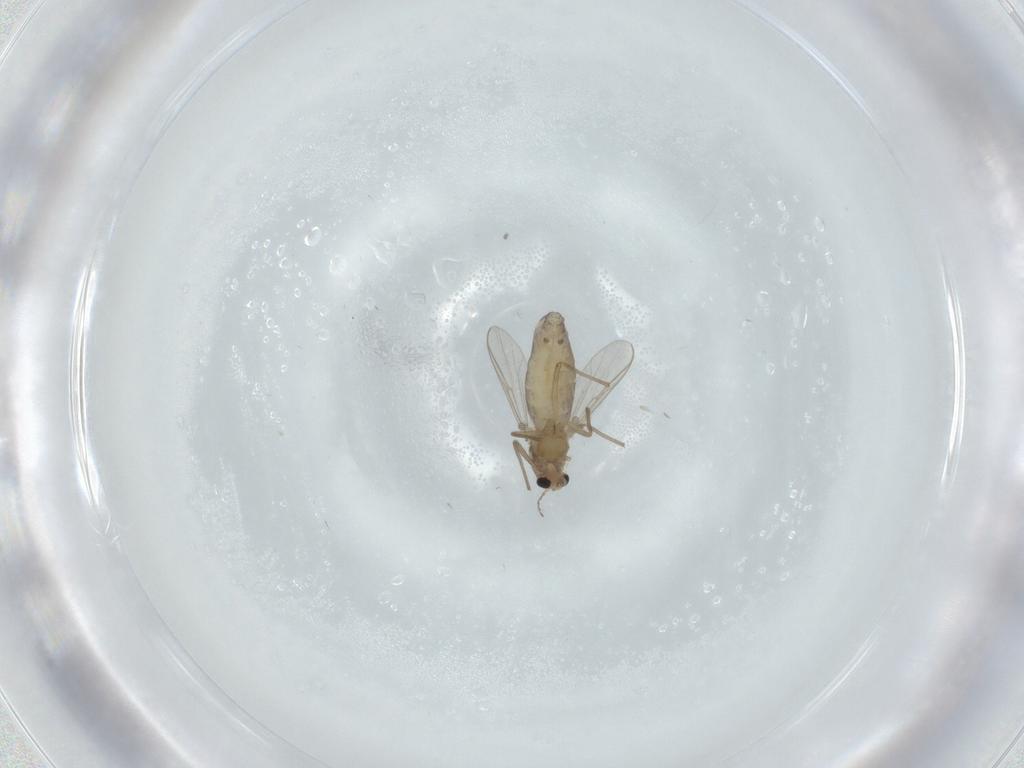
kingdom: Animalia
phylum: Arthropoda
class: Insecta
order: Diptera
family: Chironomidae
